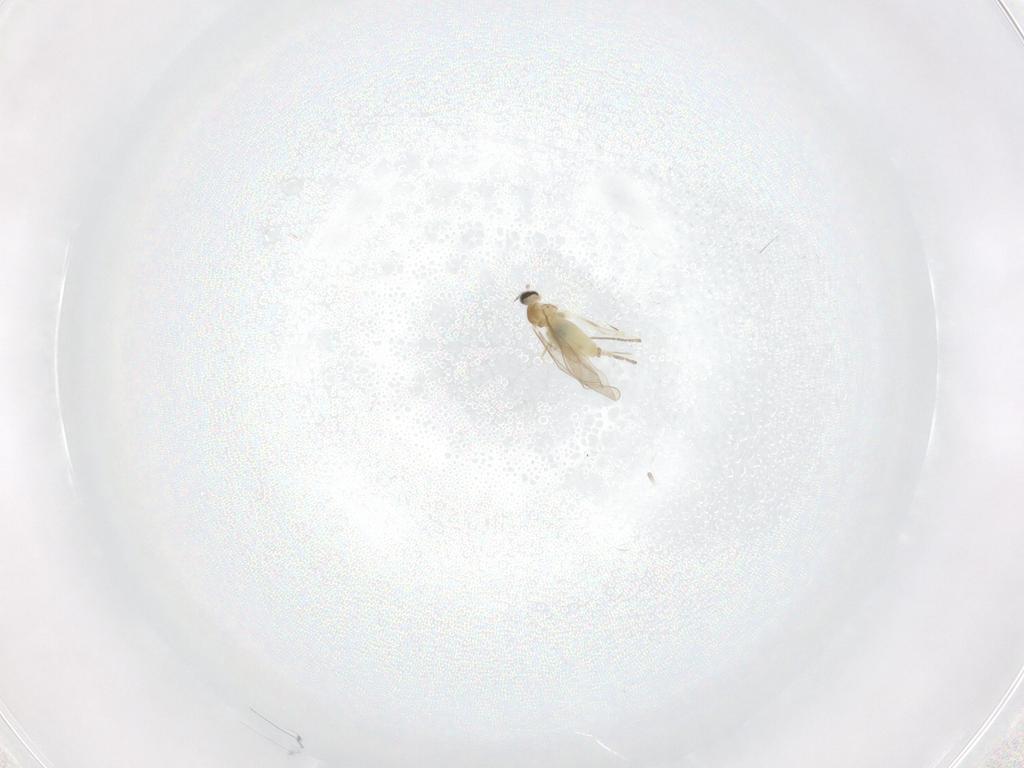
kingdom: Animalia
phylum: Arthropoda
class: Insecta
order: Diptera
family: Cecidomyiidae
